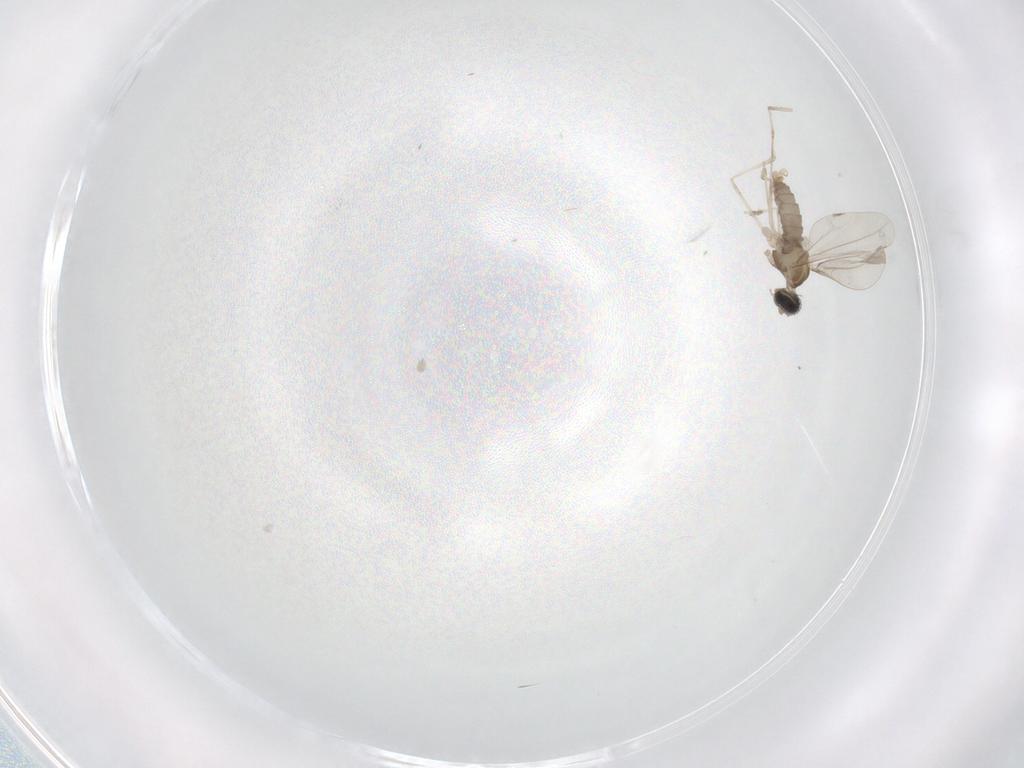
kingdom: Animalia
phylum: Arthropoda
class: Insecta
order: Diptera
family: Cecidomyiidae
